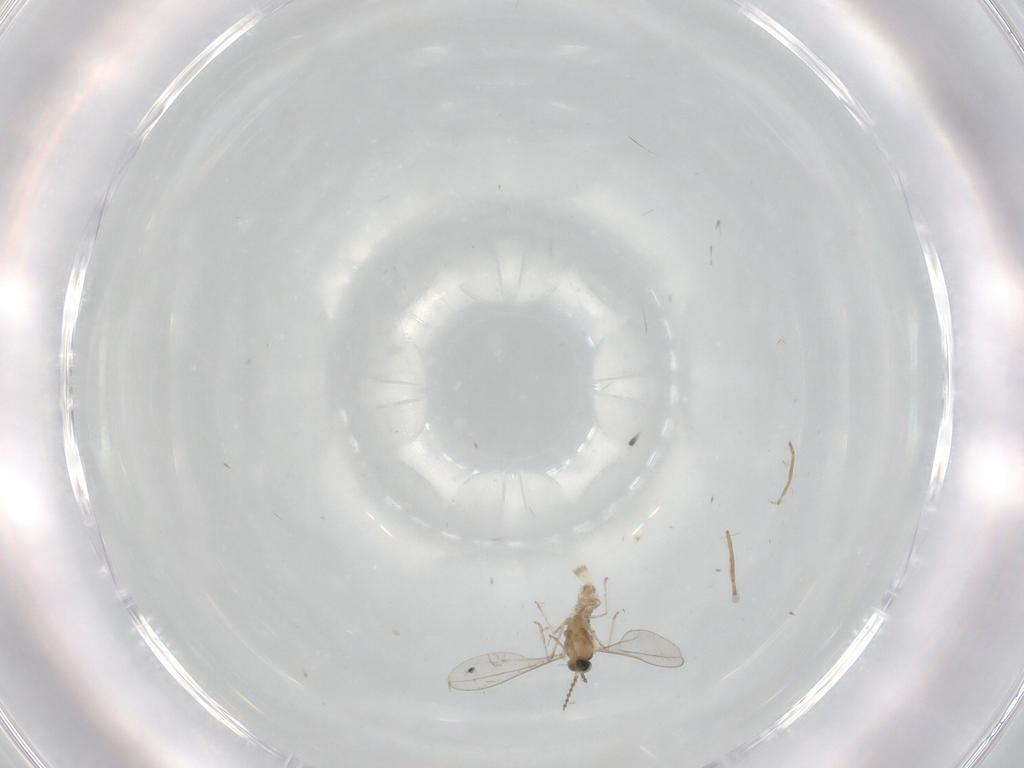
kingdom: Animalia
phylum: Arthropoda
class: Insecta
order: Diptera
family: Cecidomyiidae
